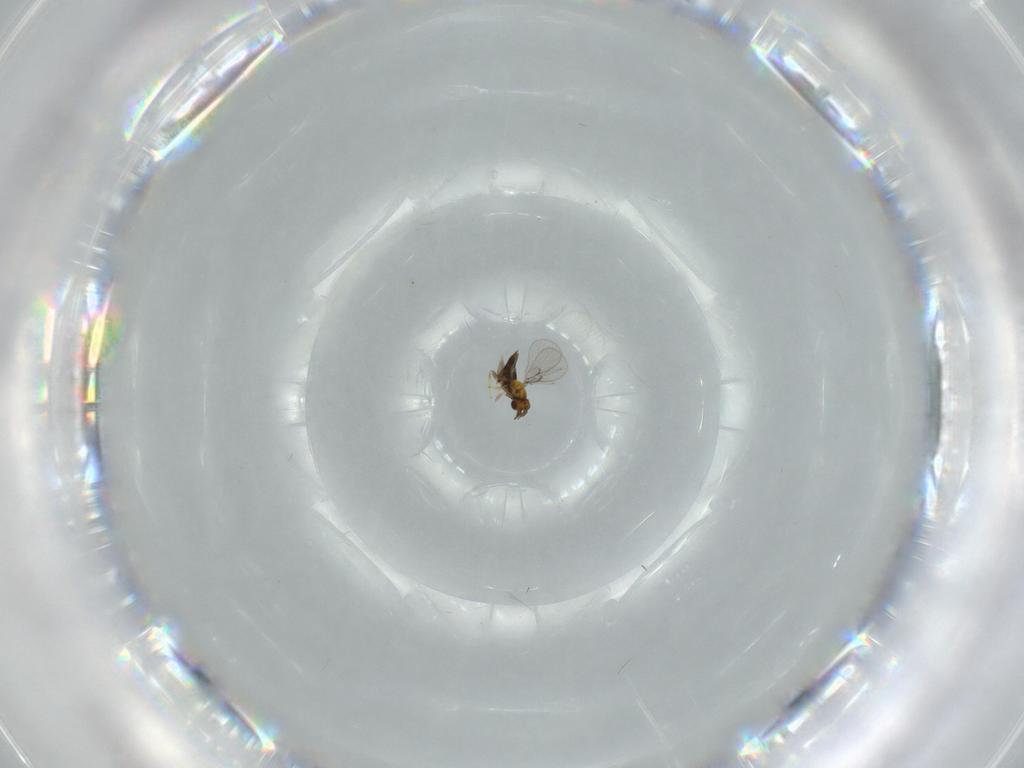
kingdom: Animalia
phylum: Arthropoda
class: Insecta
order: Hymenoptera
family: Trichogrammatidae
